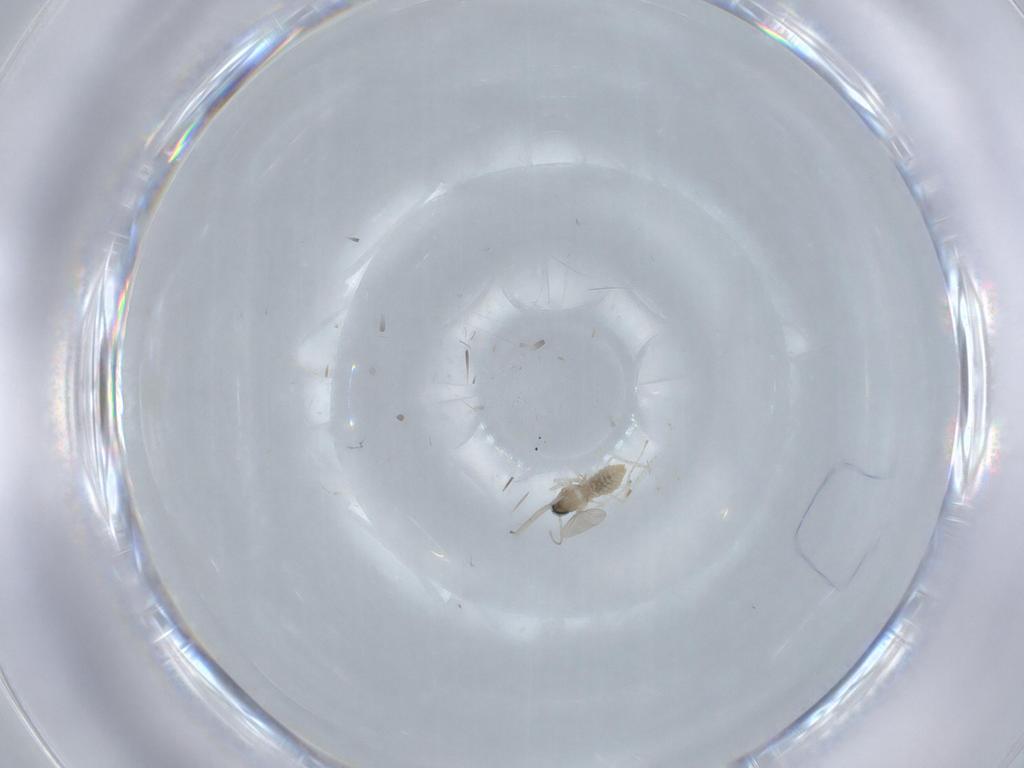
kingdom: Animalia
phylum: Arthropoda
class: Insecta
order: Diptera
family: Cecidomyiidae
